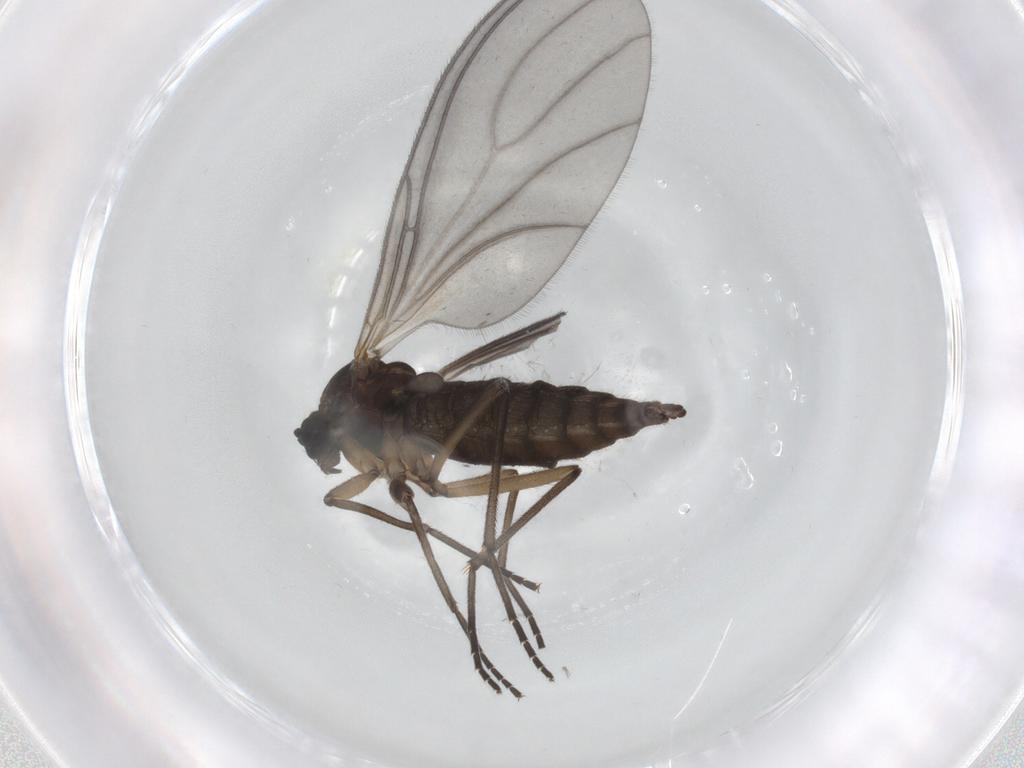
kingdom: Animalia
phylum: Arthropoda
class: Insecta
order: Diptera
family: Sciaridae
